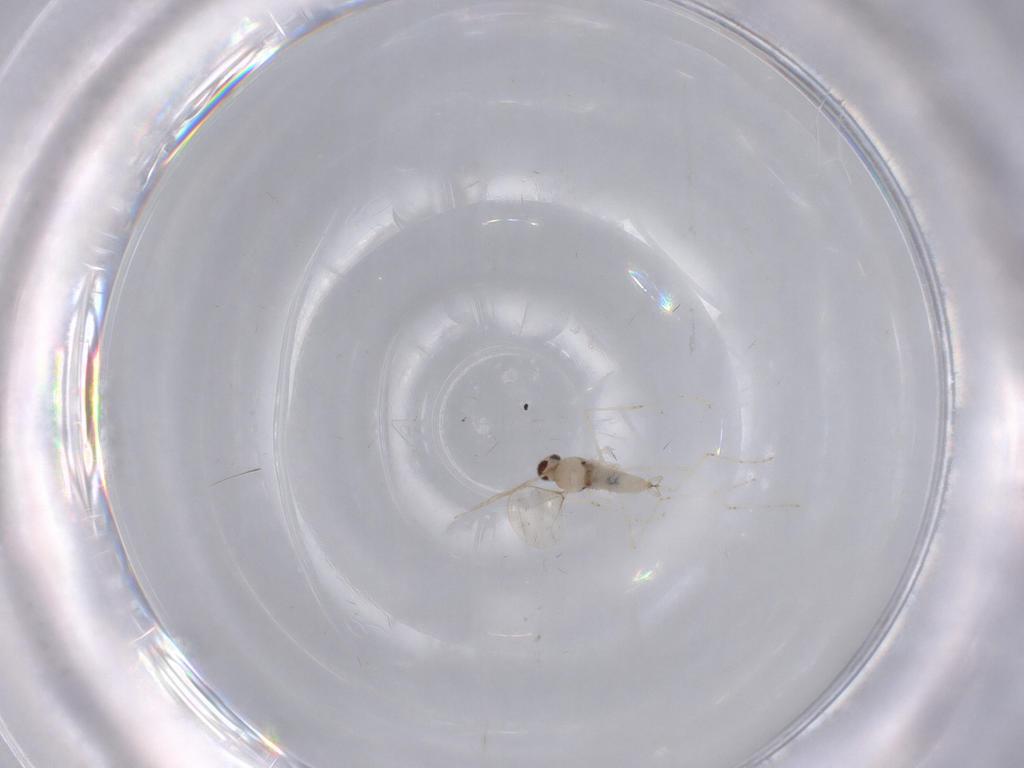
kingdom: Animalia
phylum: Arthropoda
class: Insecta
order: Diptera
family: Cecidomyiidae
